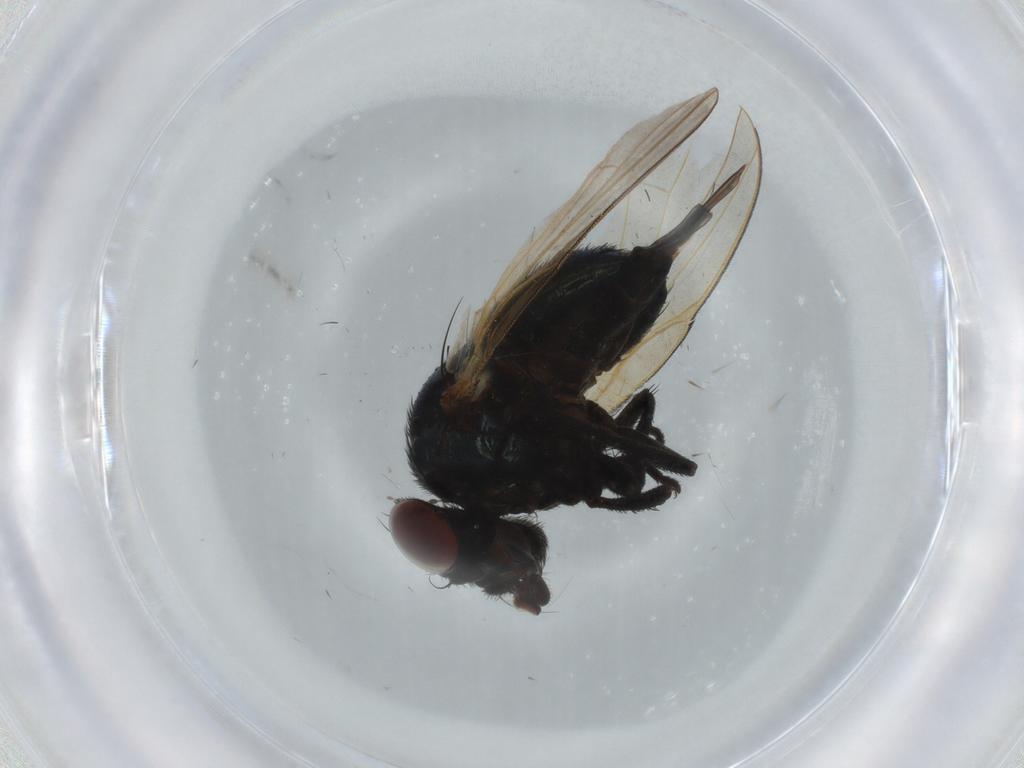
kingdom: Animalia
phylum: Arthropoda
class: Insecta
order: Diptera
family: Lonchaeidae
